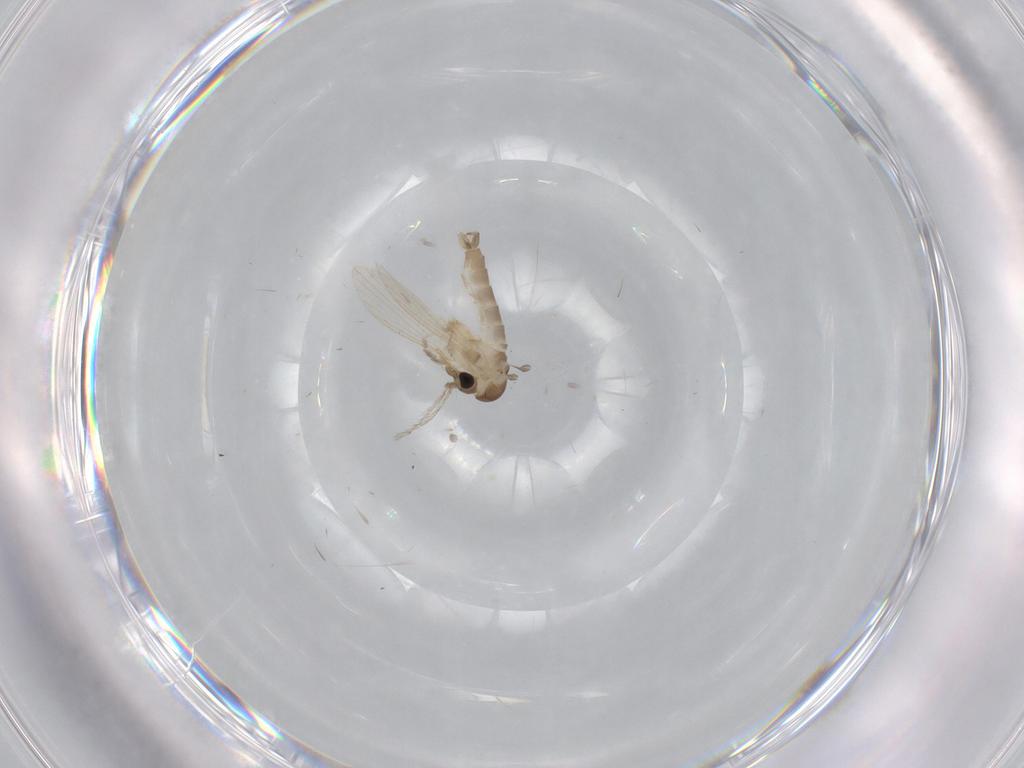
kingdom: Animalia
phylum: Arthropoda
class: Insecta
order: Diptera
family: Psychodidae
